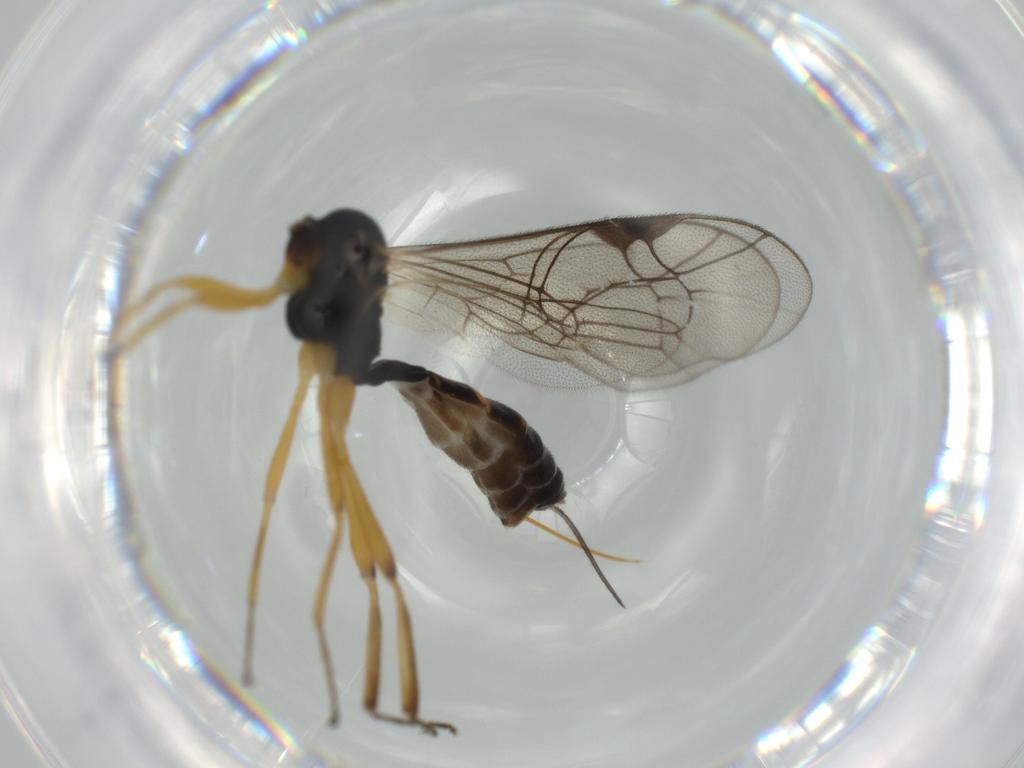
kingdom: Animalia
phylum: Arthropoda
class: Insecta
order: Hymenoptera
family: Ichneumonidae
